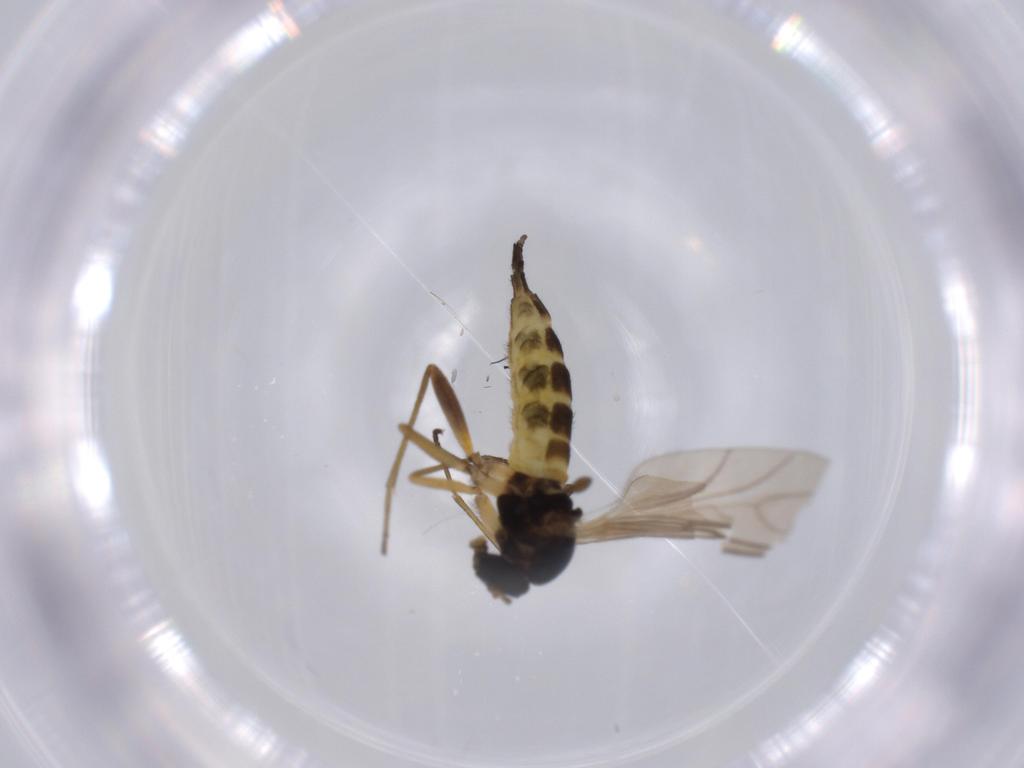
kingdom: Animalia
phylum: Arthropoda
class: Insecta
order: Diptera
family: Sciaridae
